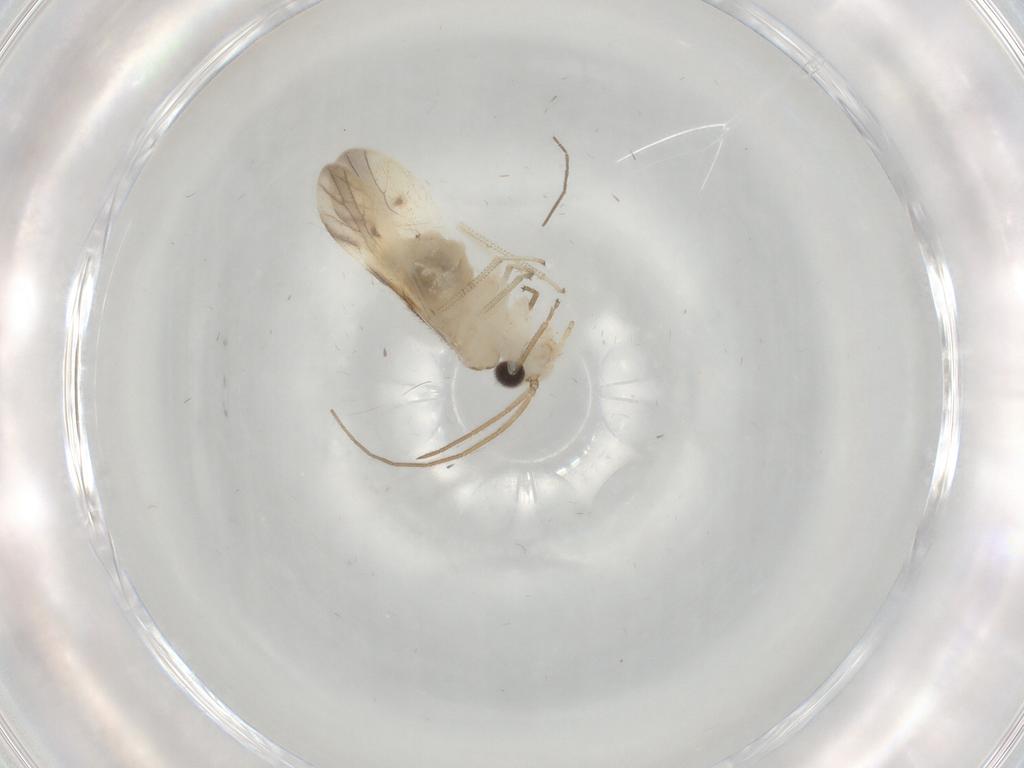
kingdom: Animalia
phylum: Arthropoda
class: Insecta
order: Psocodea
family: Caeciliusidae
